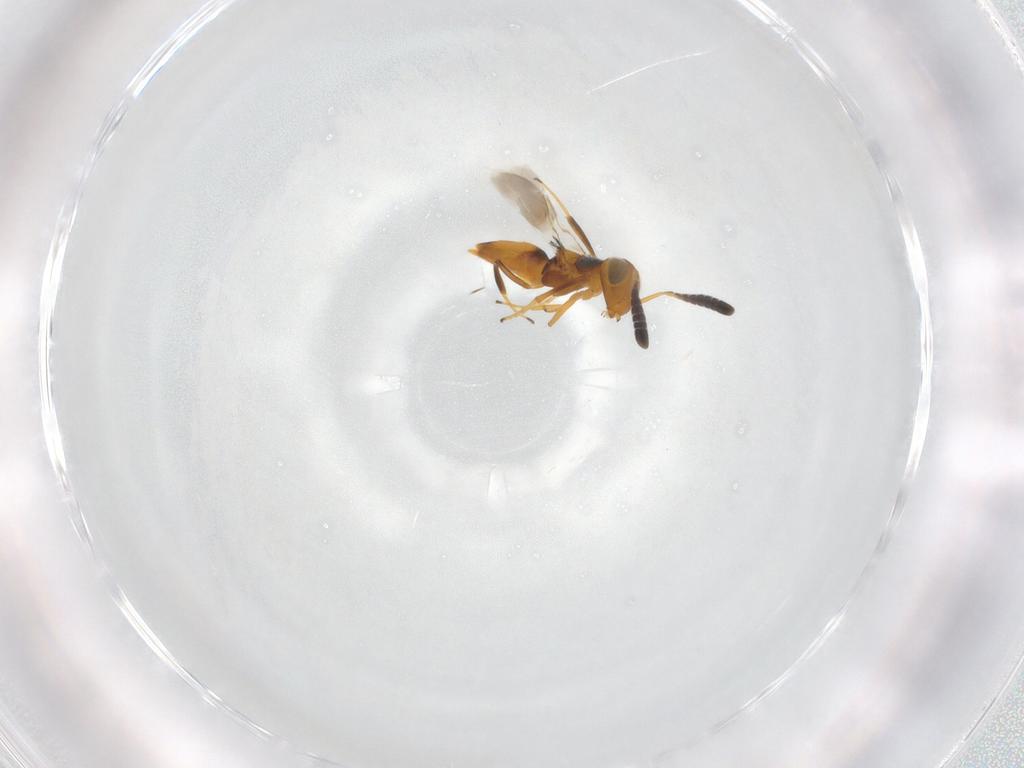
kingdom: Animalia
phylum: Arthropoda
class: Insecta
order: Hymenoptera
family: Encyrtidae
